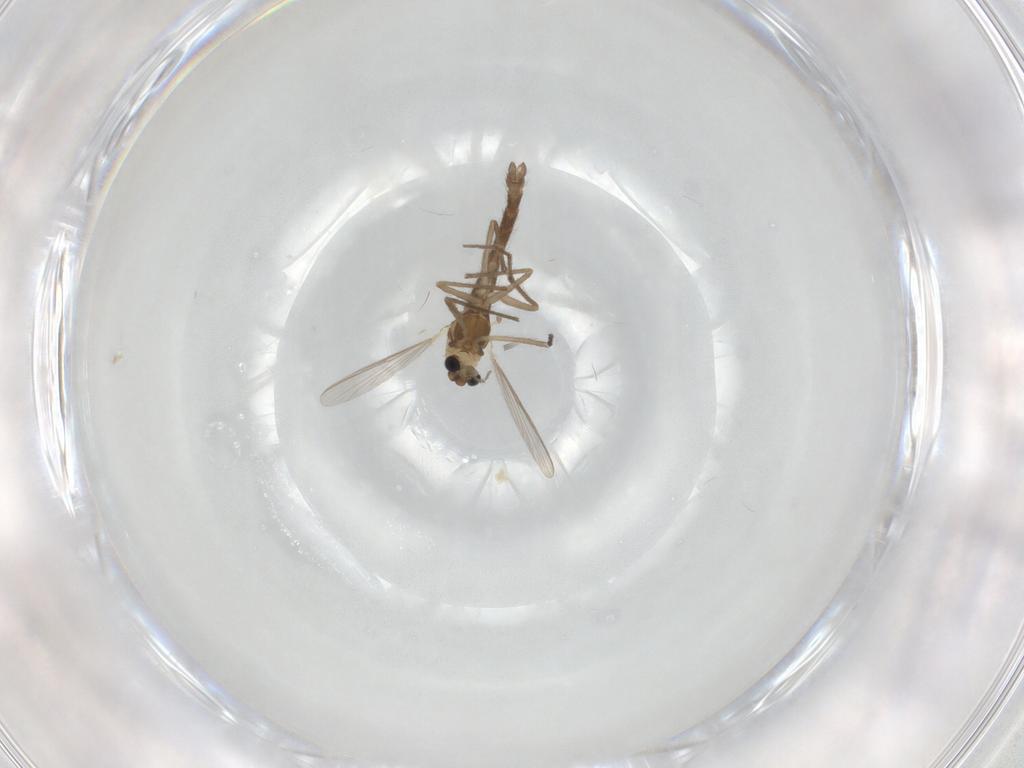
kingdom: Animalia
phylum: Arthropoda
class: Insecta
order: Diptera
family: Chironomidae
